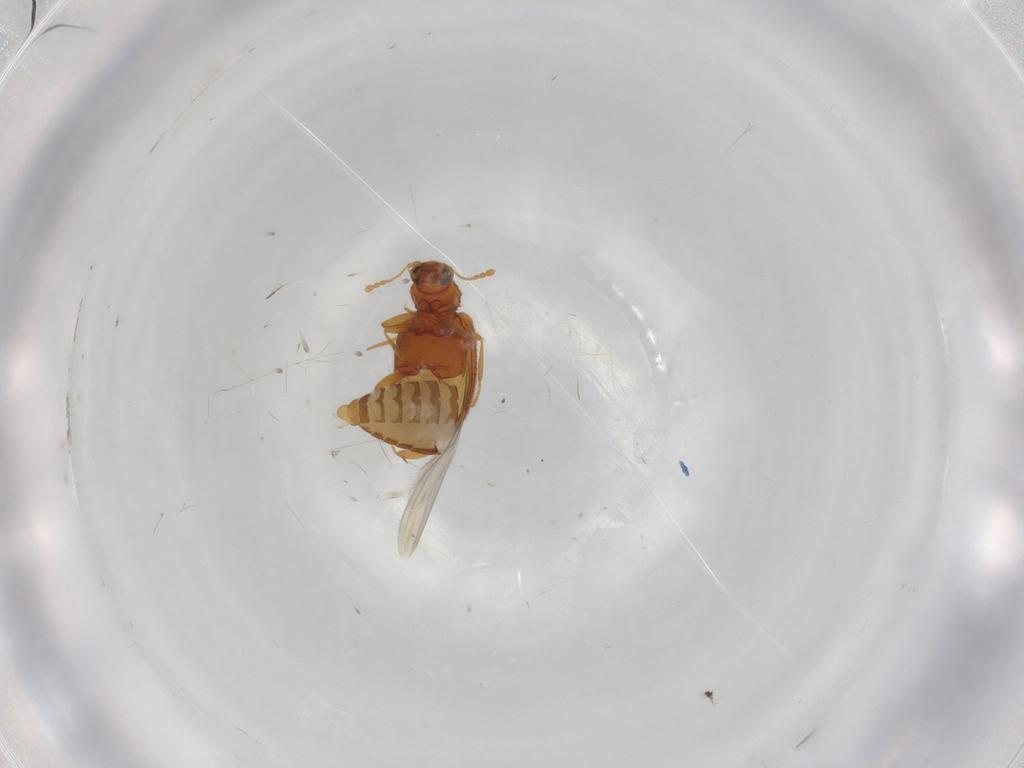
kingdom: Animalia
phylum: Arthropoda
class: Insecta
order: Coleoptera
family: Latridiidae
